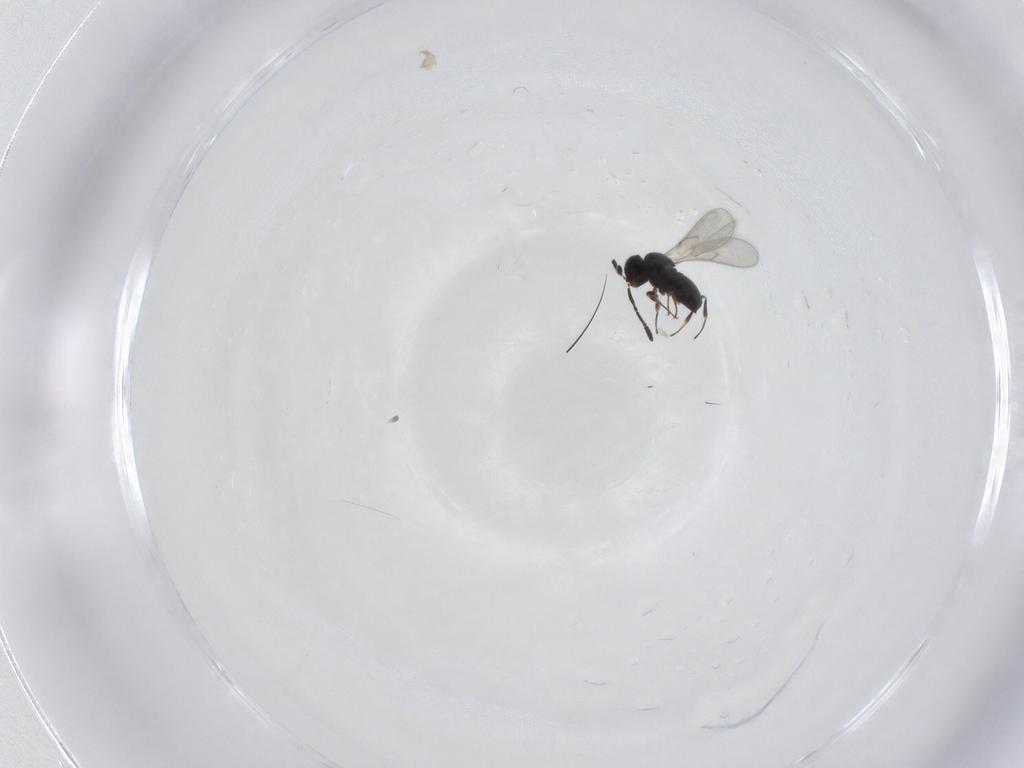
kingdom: Animalia
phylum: Arthropoda
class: Insecta
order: Hymenoptera
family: Scelionidae
